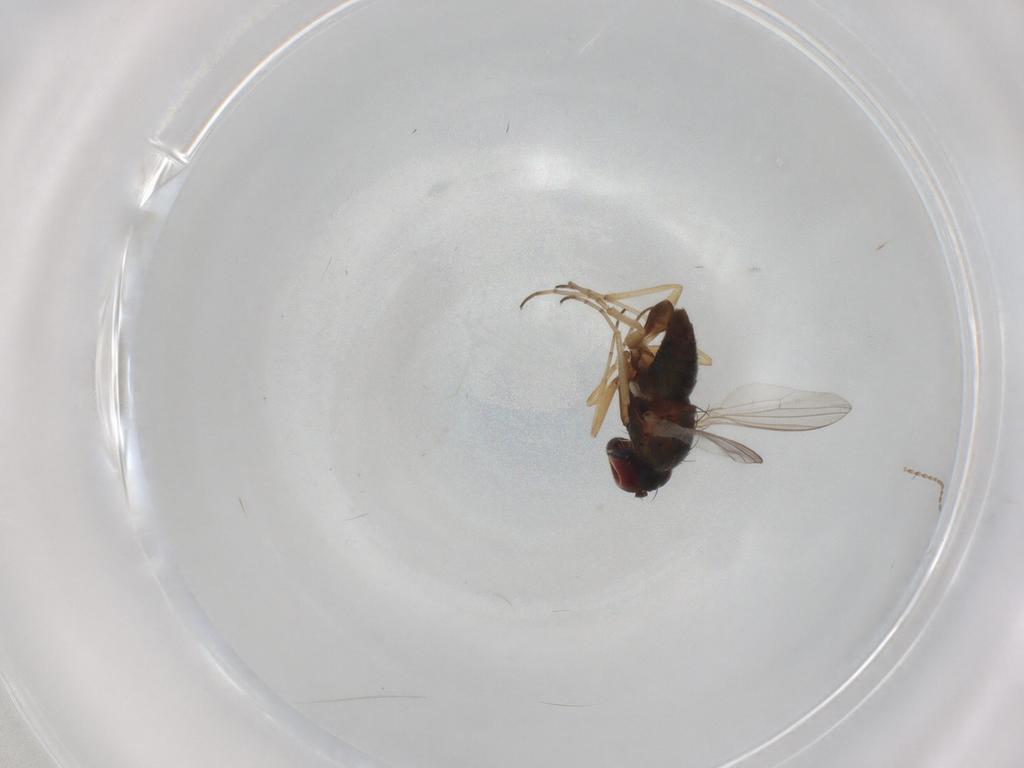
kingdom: Animalia
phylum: Arthropoda
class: Insecta
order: Diptera
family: Dolichopodidae
